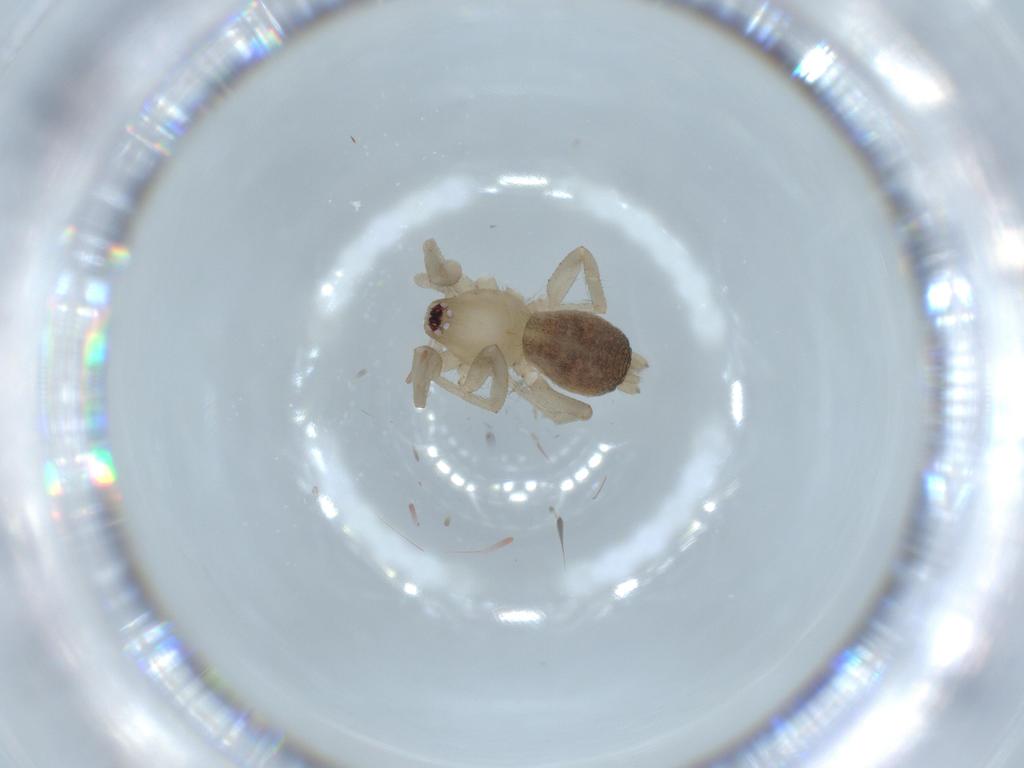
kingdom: Animalia
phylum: Arthropoda
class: Arachnida
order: Araneae
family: Gnaphosidae
